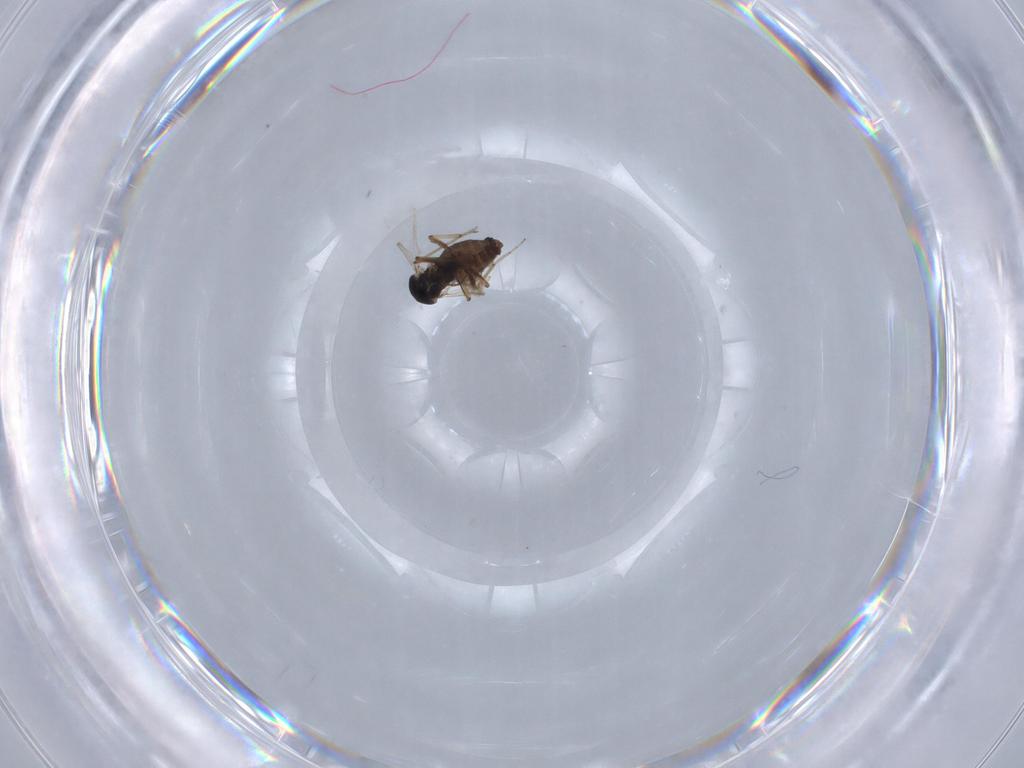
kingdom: Animalia
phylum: Arthropoda
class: Insecta
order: Diptera
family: Ceratopogonidae
